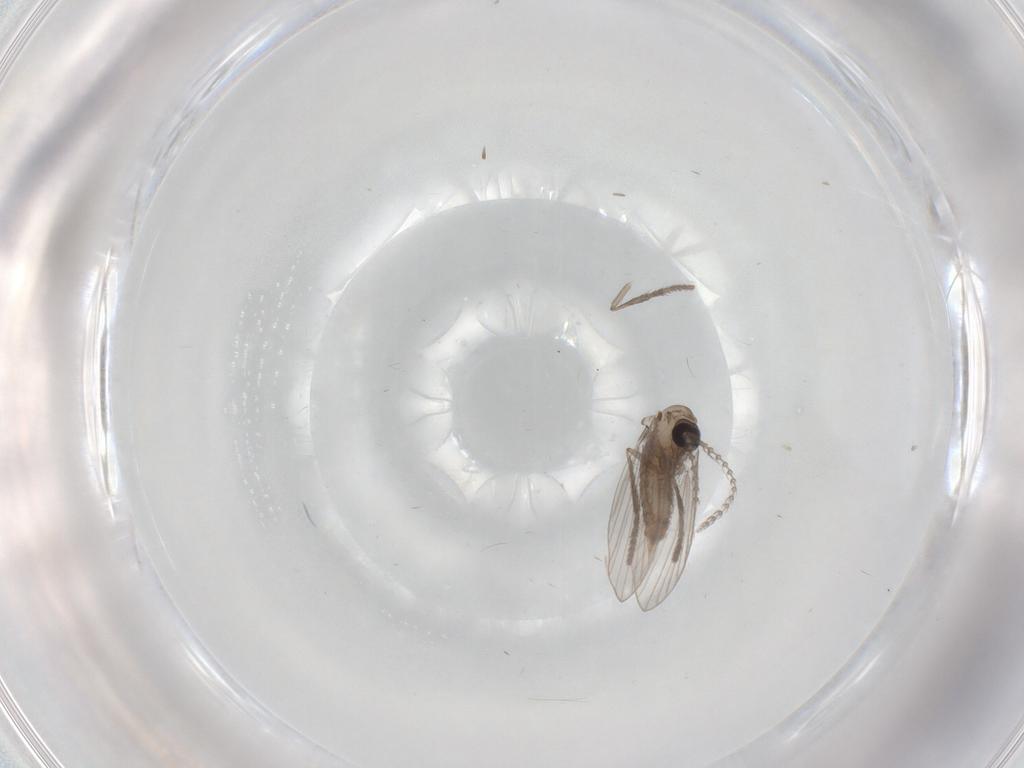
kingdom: Animalia
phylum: Arthropoda
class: Insecta
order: Diptera
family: Psychodidae
